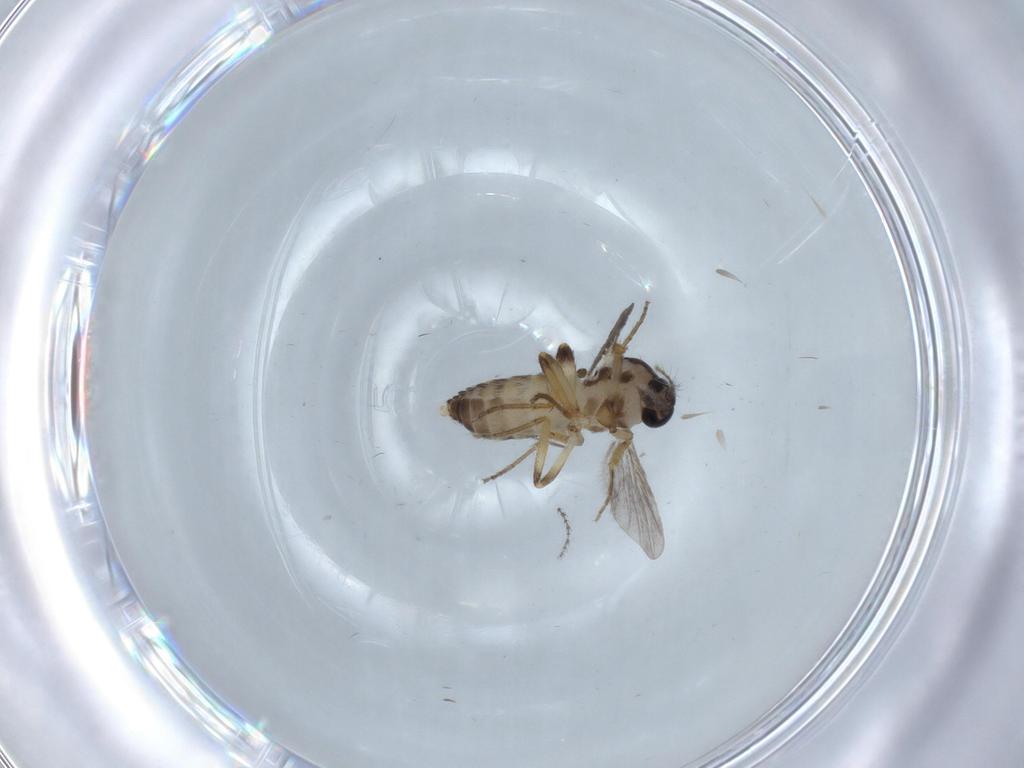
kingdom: Animalia
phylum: Arthropoda
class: Insecta
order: Diptera
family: Ceratopogonidae
